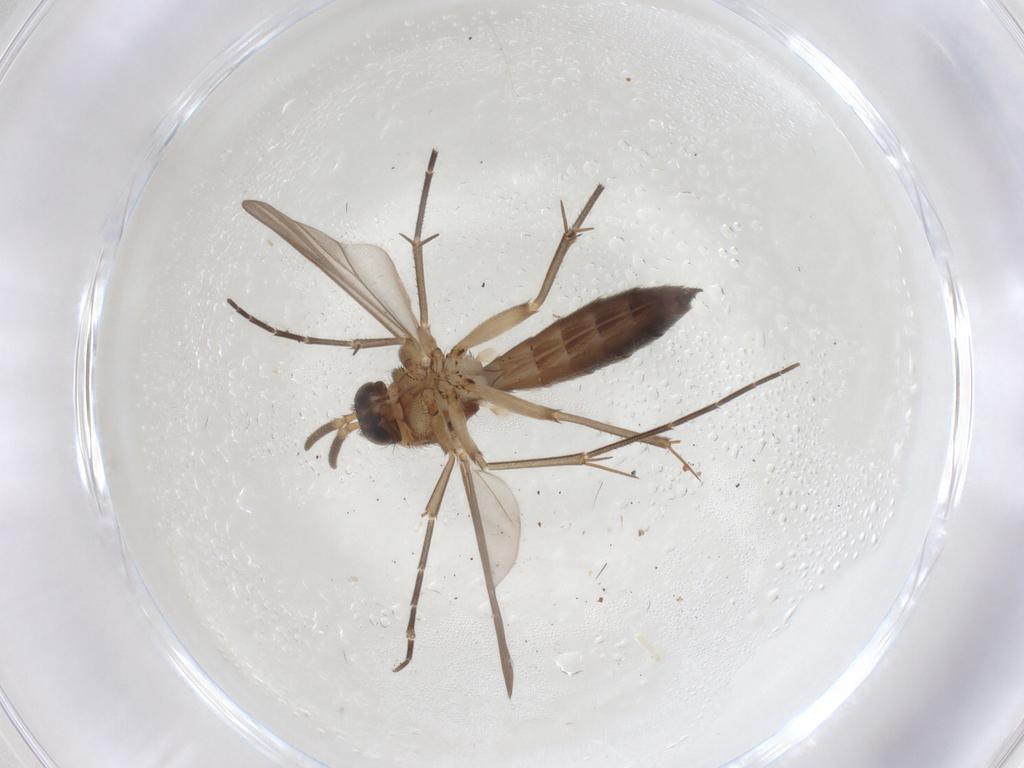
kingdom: Animalia
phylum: Arthropoda
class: Insecta
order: Diptera
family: Mycetophilidae
